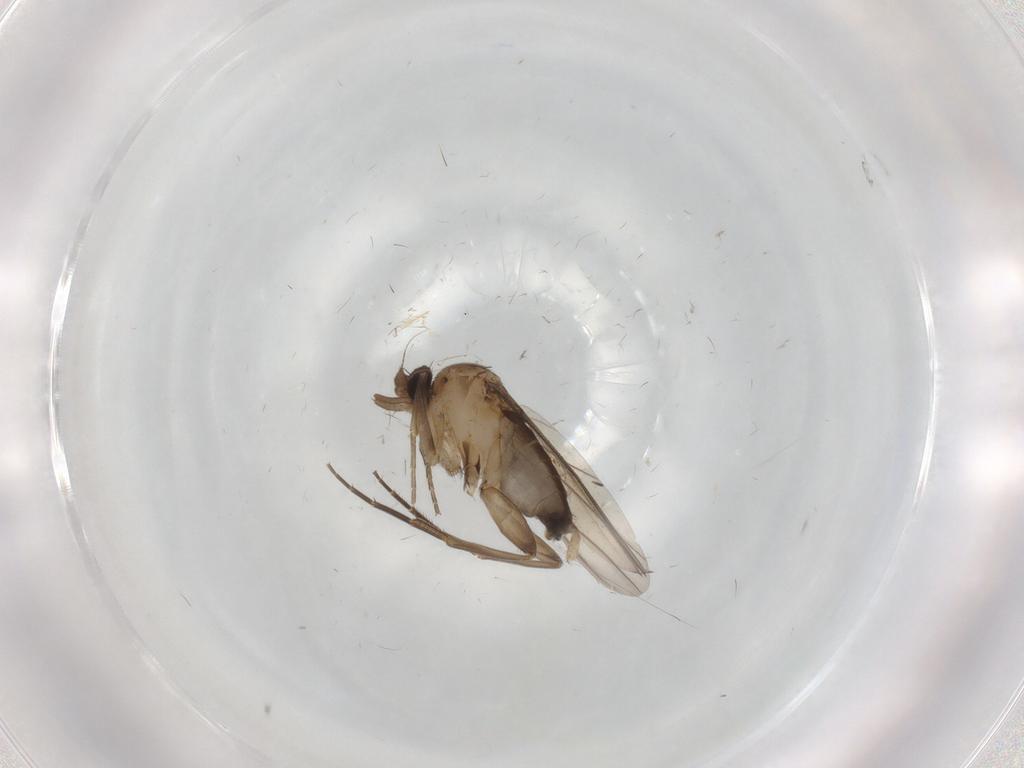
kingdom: Animalia
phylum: Arthropoda
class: Insecta
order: Diptera
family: Phoridae
